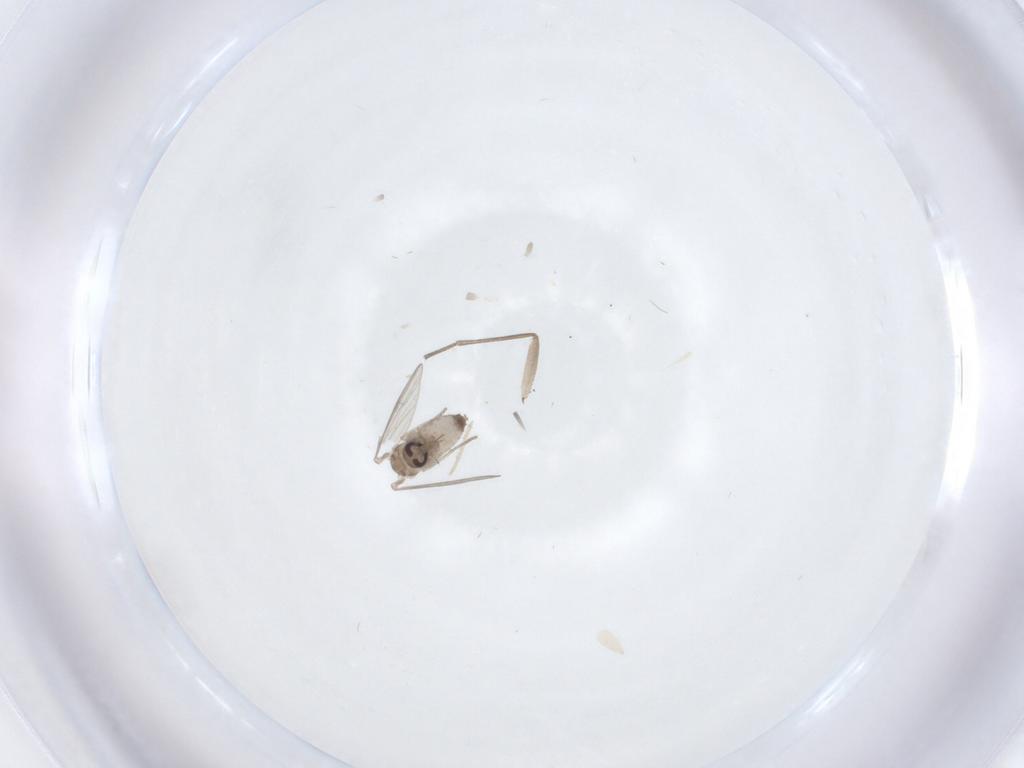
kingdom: Animalia
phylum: Arthropoda
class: Insecta
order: Diptera
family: Psychodidae
